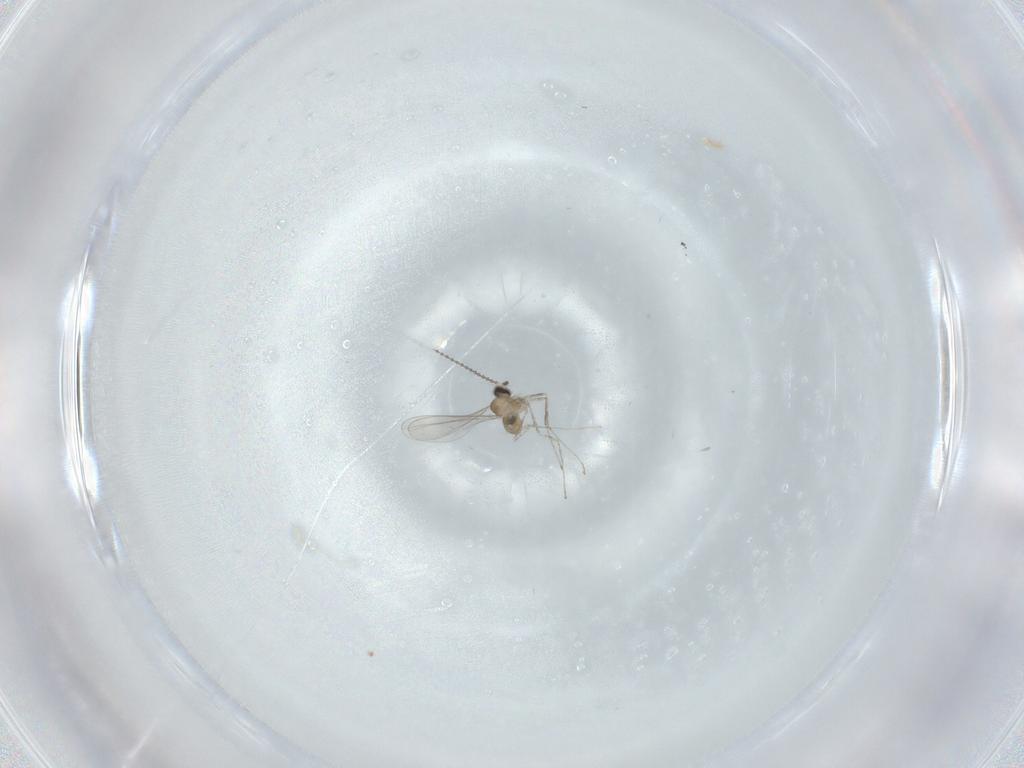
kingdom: Animalia
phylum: Arthropoda
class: Insecta
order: Diptera
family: Cecidomyiidae
